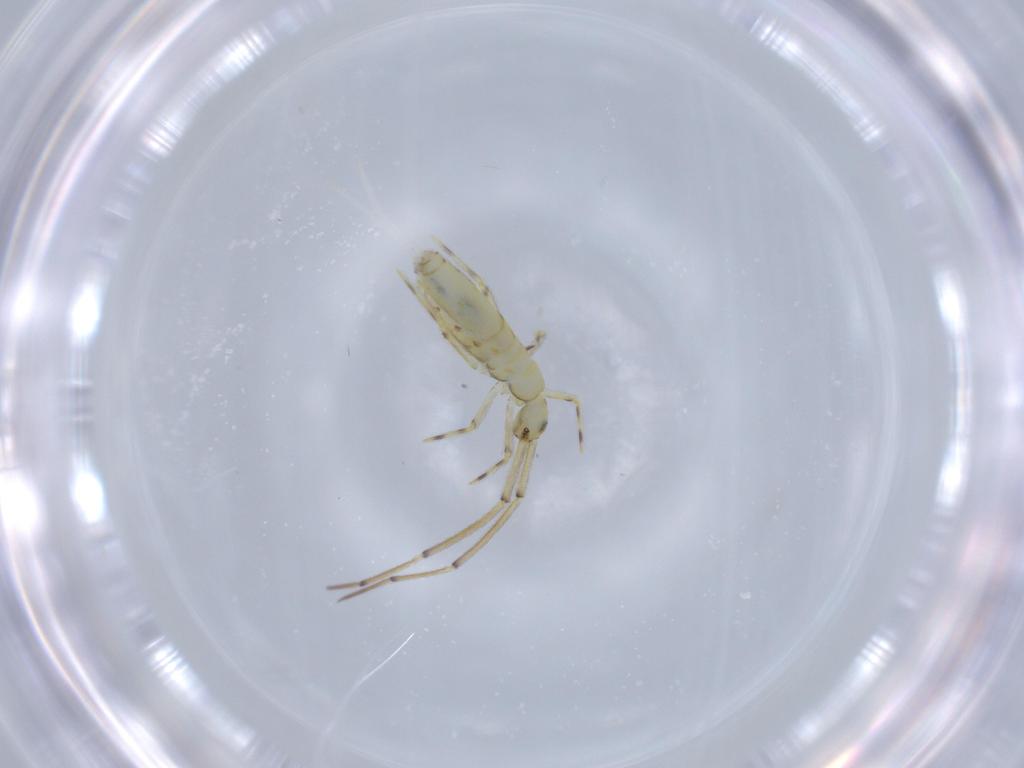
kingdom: Animalia
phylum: Arthropoda
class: Collembola
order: Entomobryomorpha
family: Paronellidae
